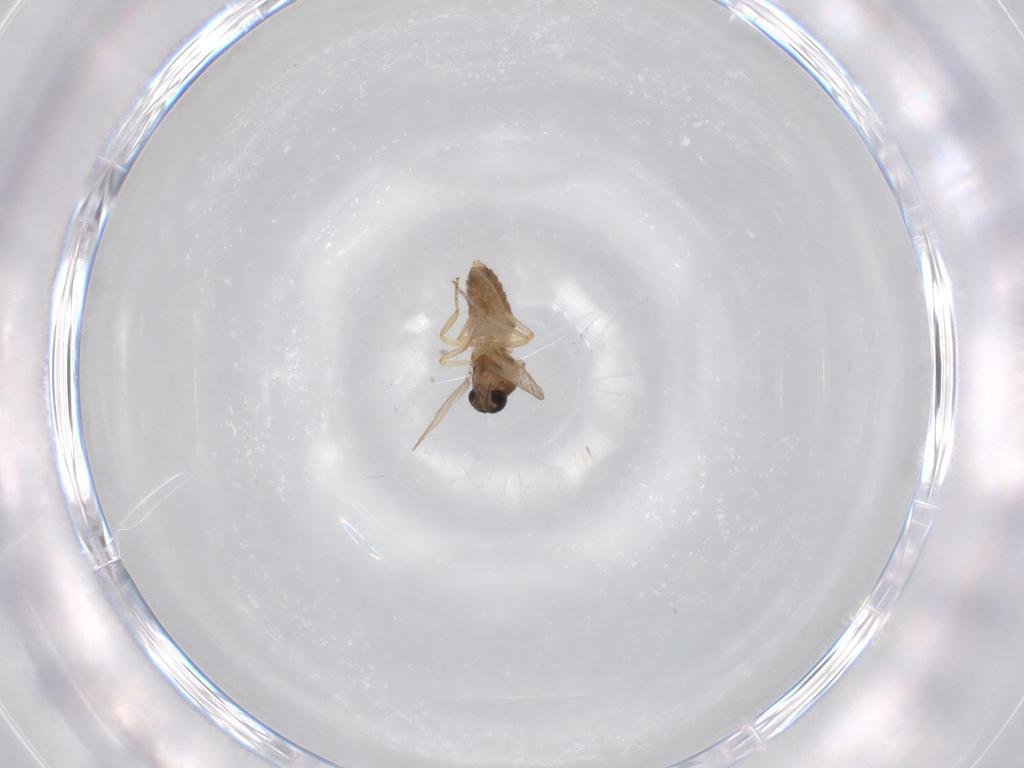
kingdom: Animalia
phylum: Arthropoda
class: Insecta
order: Diptera
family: Ceratopogonidae
